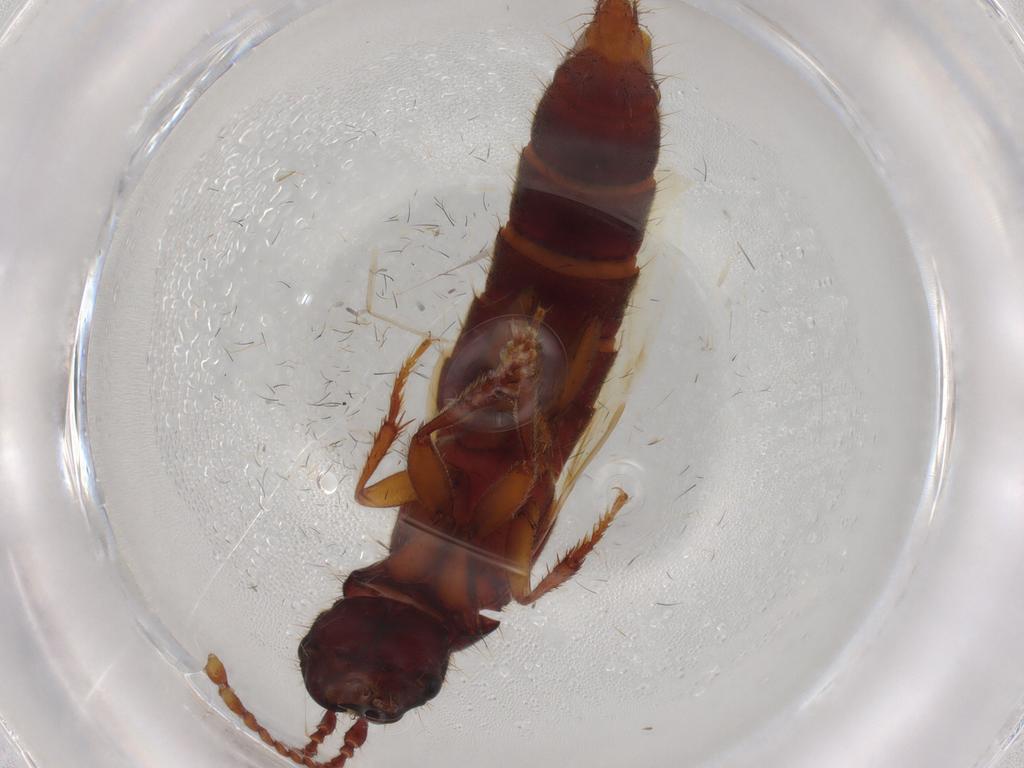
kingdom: Animalia
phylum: Arthropoda
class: Insecta
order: Coleoptera
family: Staphylinidae
